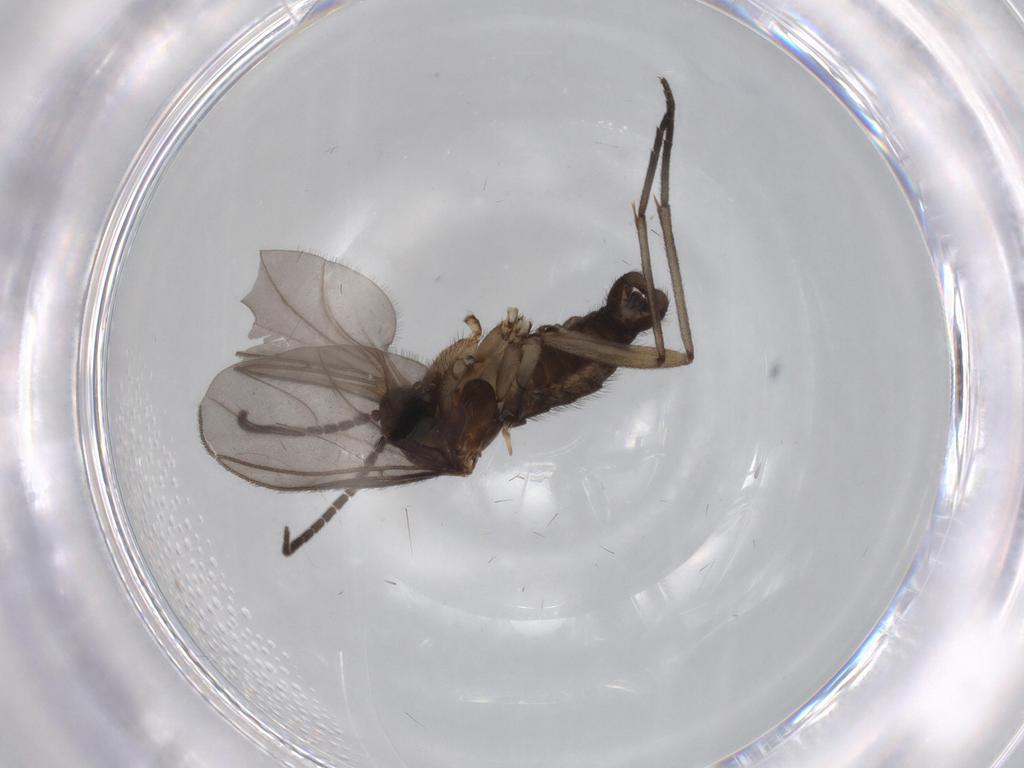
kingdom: Animalia
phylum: Arthropoda
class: Insecta
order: Diptera
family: Sciaridae
